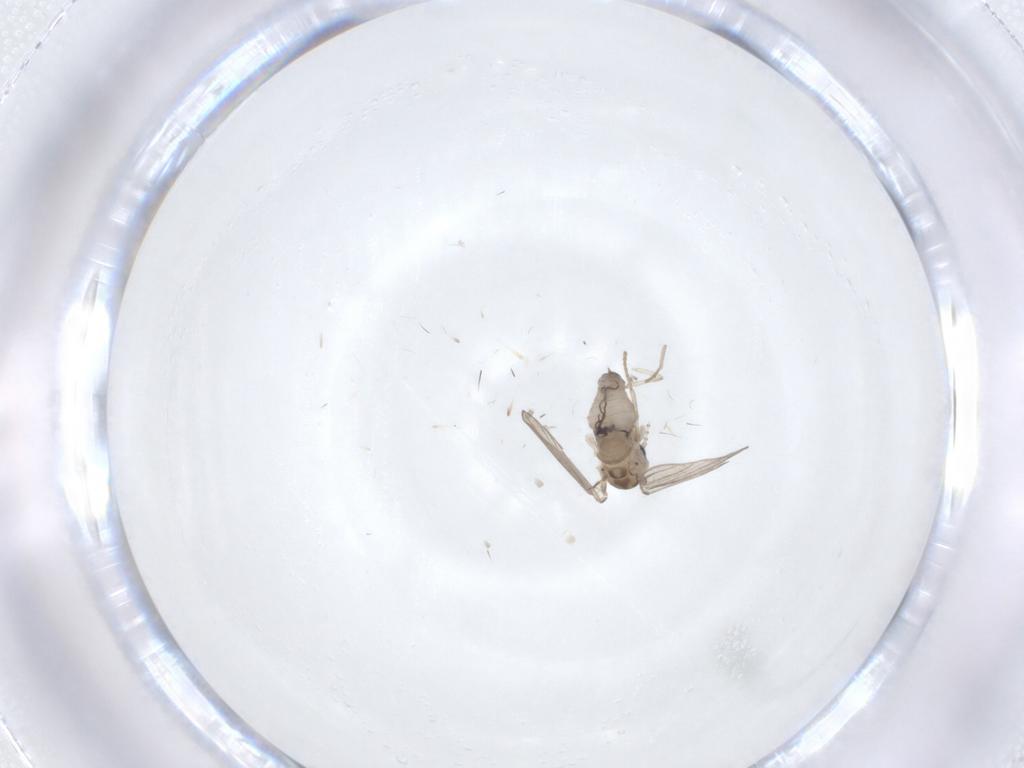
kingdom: Animalia
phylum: Arthropoda
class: Insecta
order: Diptera
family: Psychodidae
